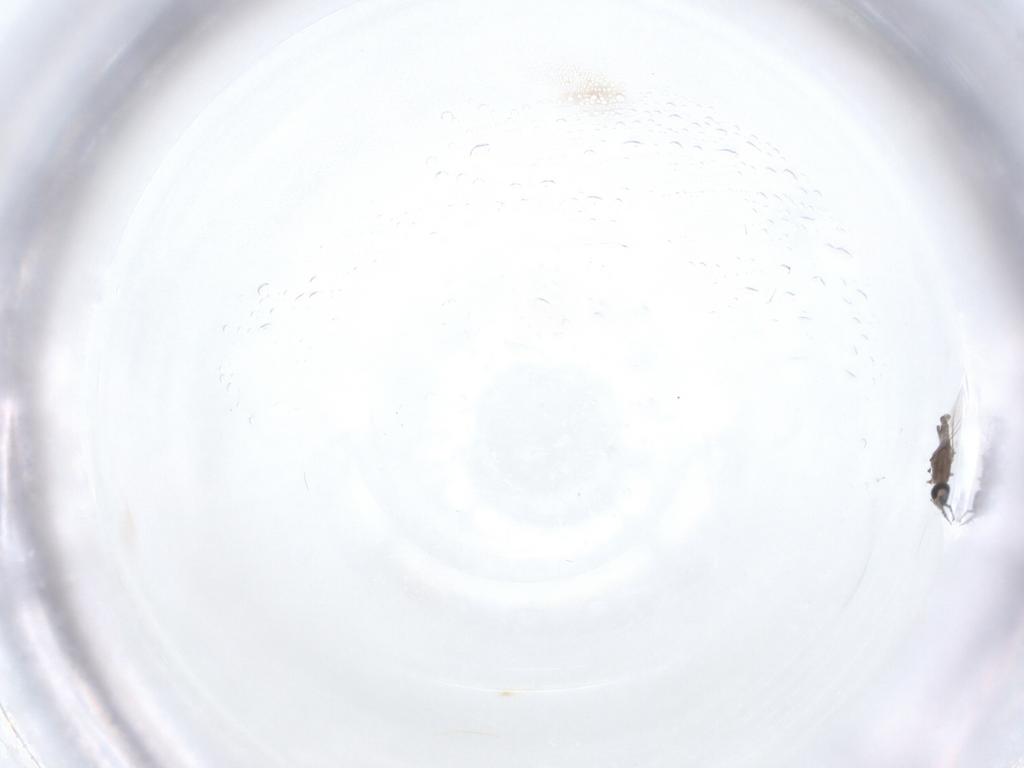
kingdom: Animalia
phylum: Arthropoda
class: Insecta
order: Diptera
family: Cryptochetidae
